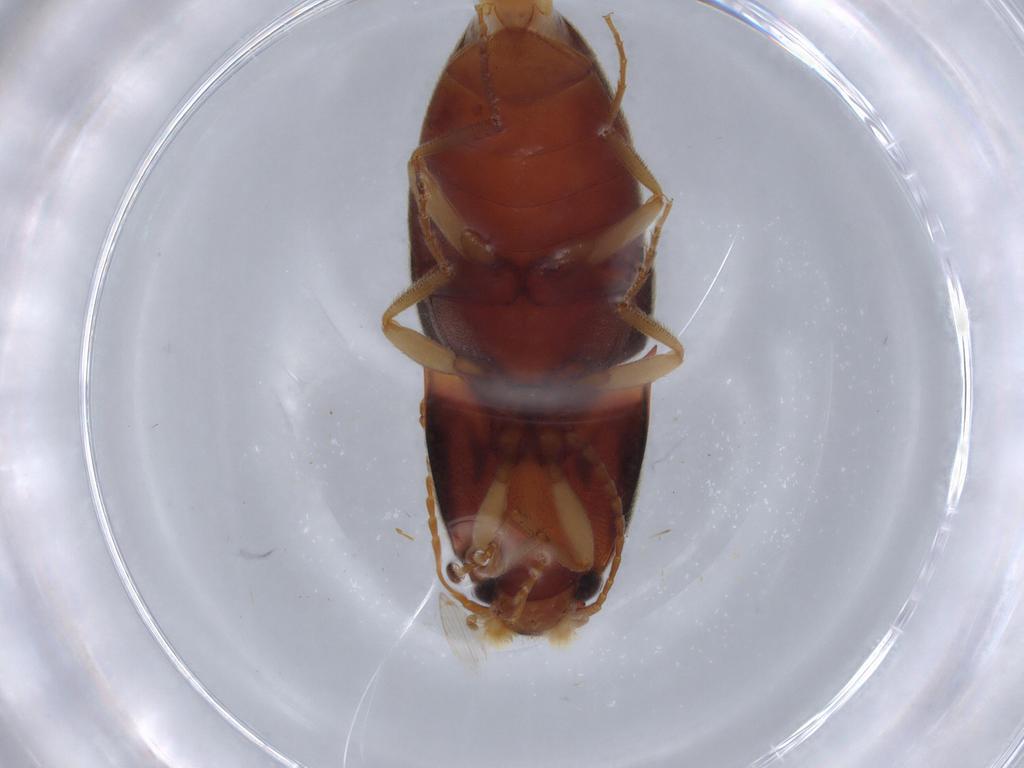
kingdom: Animalia
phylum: Arthropoda
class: Insecta
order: Coleoptera
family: Elateridae
